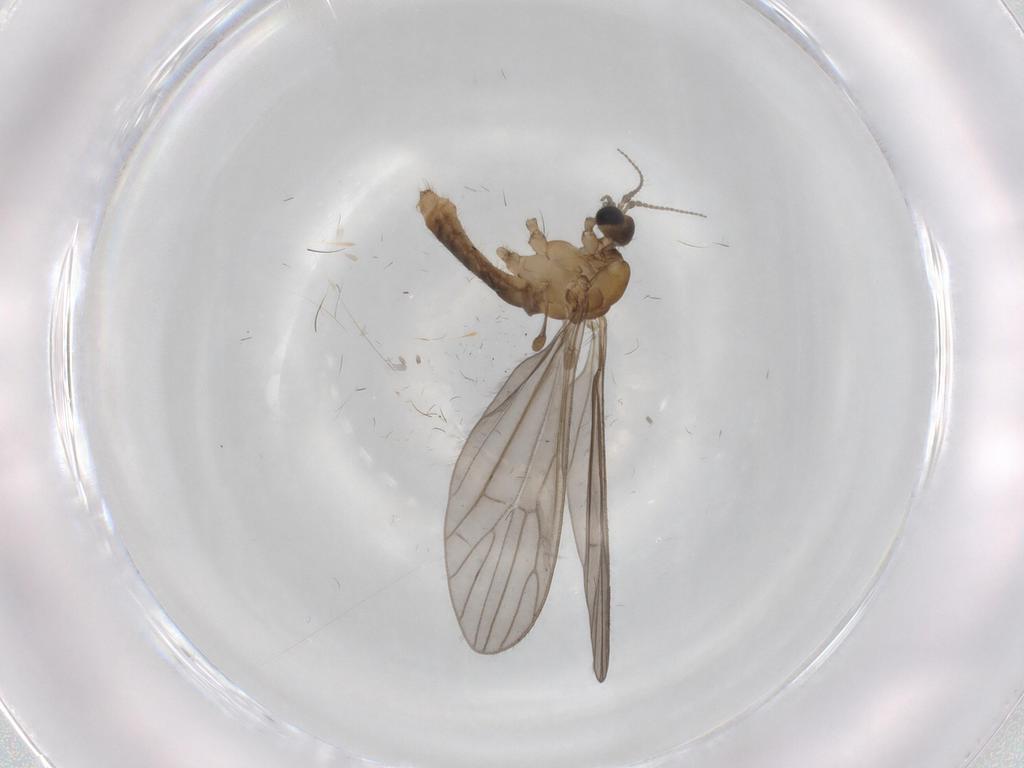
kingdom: Animalia
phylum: Arthropoda
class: Insecta
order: Diptera
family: Limoniidae
